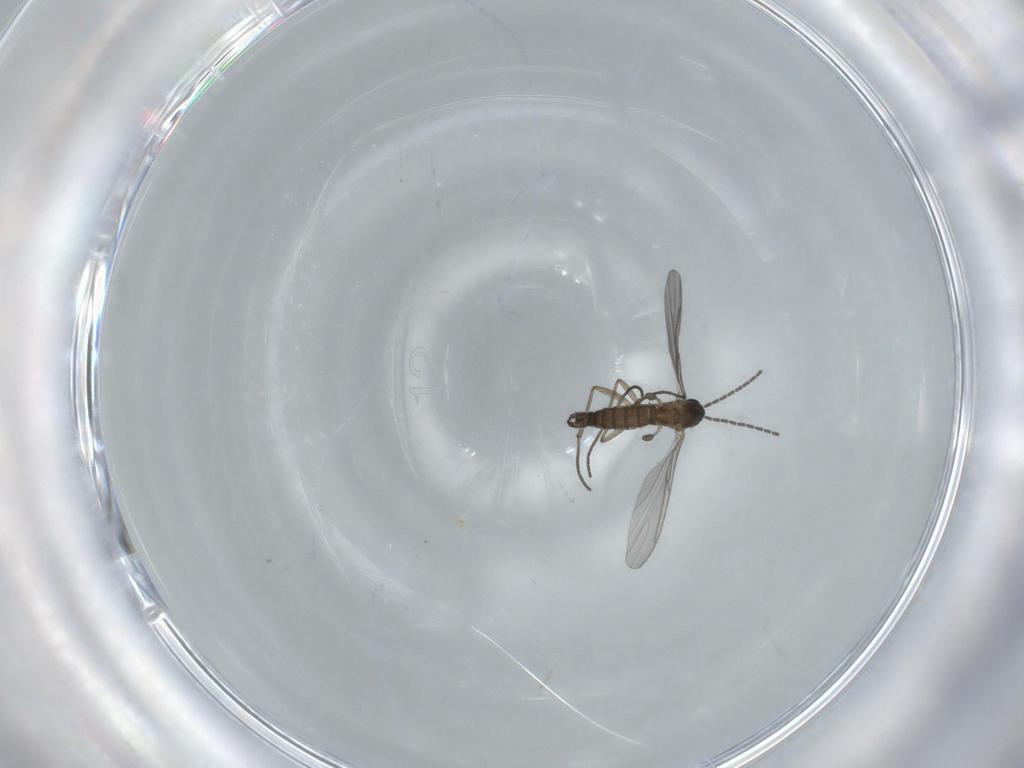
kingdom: Animalia
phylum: Arthropoda
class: Insecta
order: Diptera
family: Sciaridae
